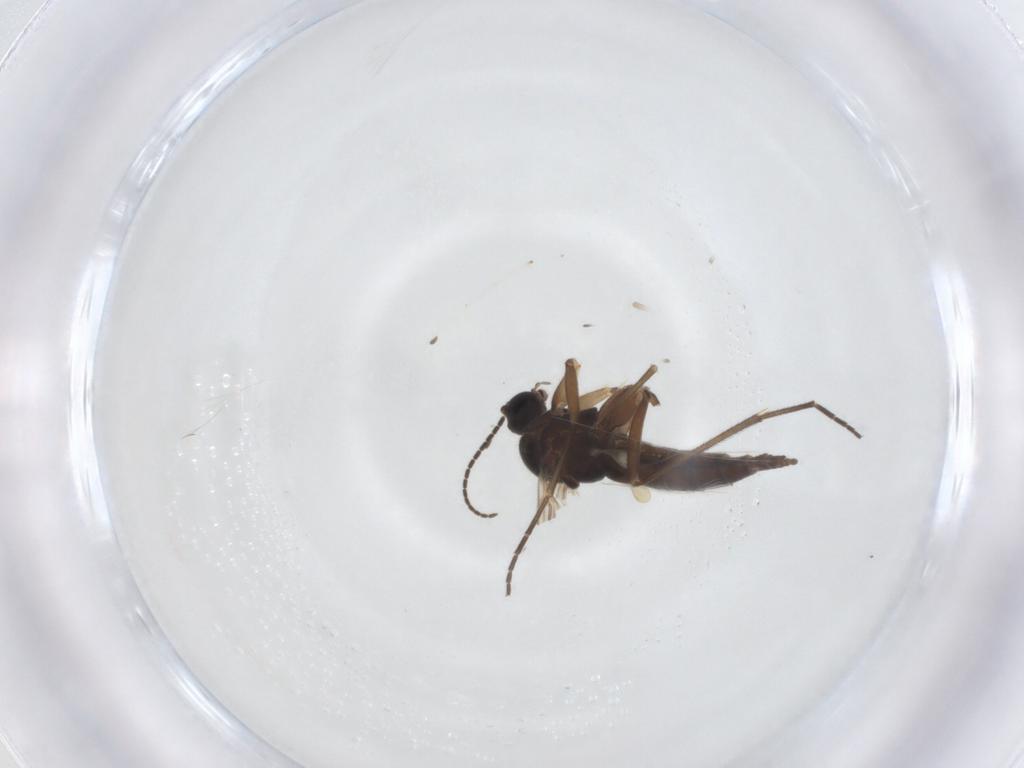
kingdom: Animalia
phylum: Arthropoda
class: Insecta
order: Diptera
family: Sciaridae
